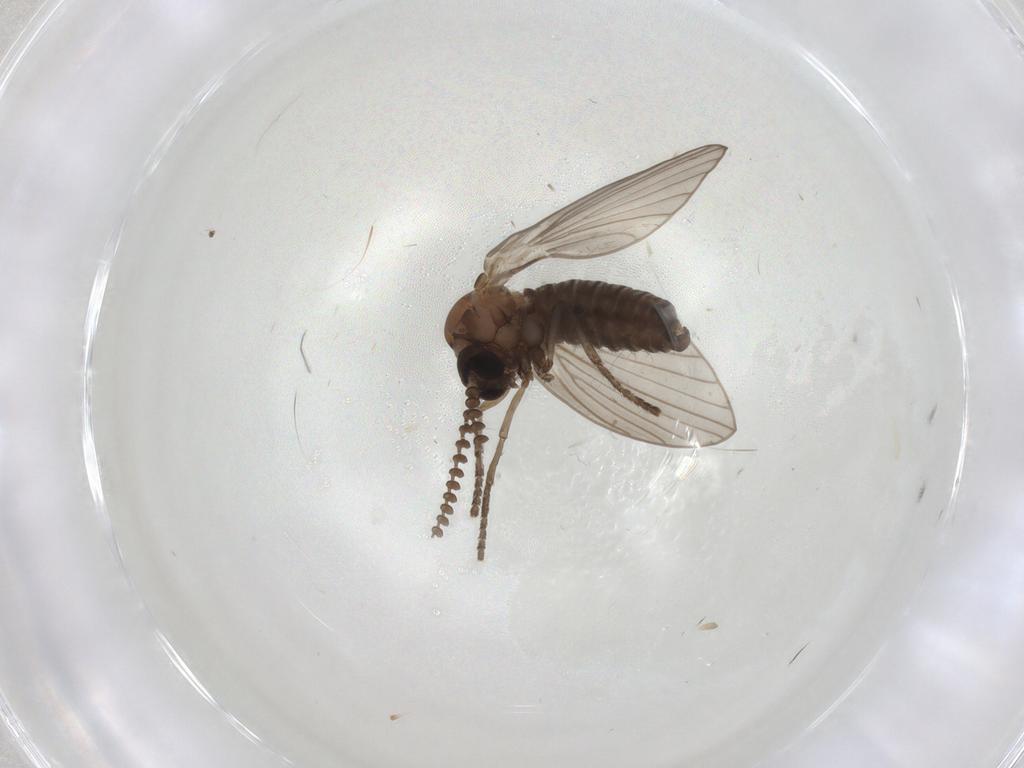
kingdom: Animalia
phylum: Arthropoda
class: Insecta
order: Diptera
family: Psychodidae
